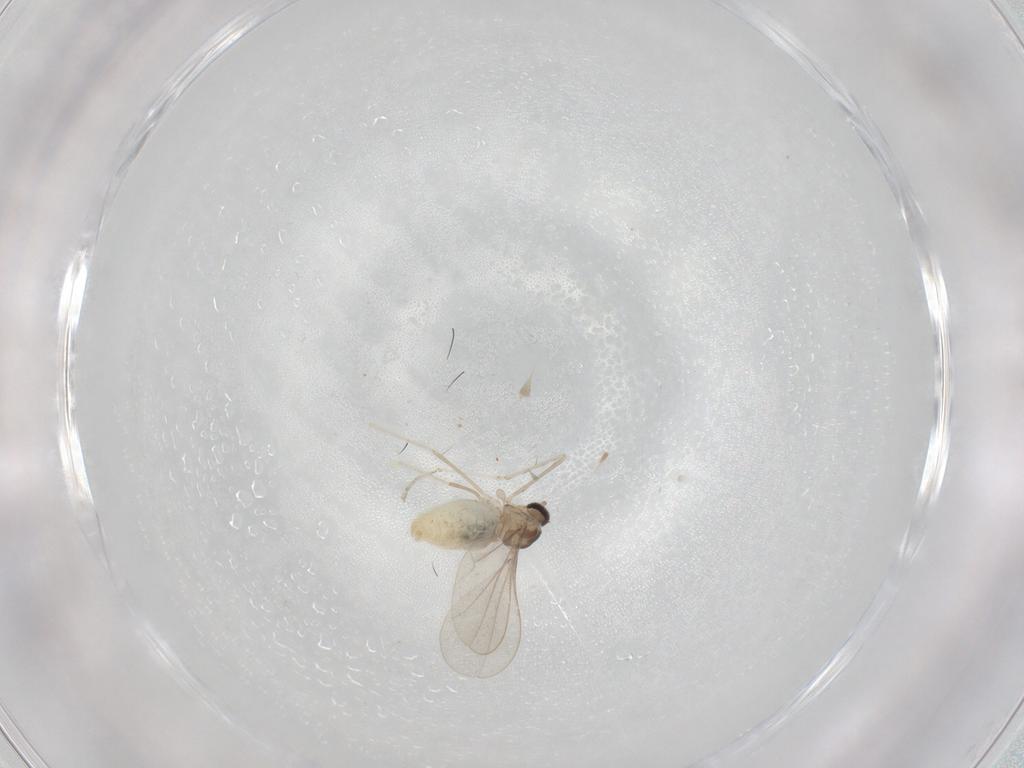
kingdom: Animalia
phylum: Arthropoda
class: Insecta
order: Diptera
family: Cecidomyiidae
